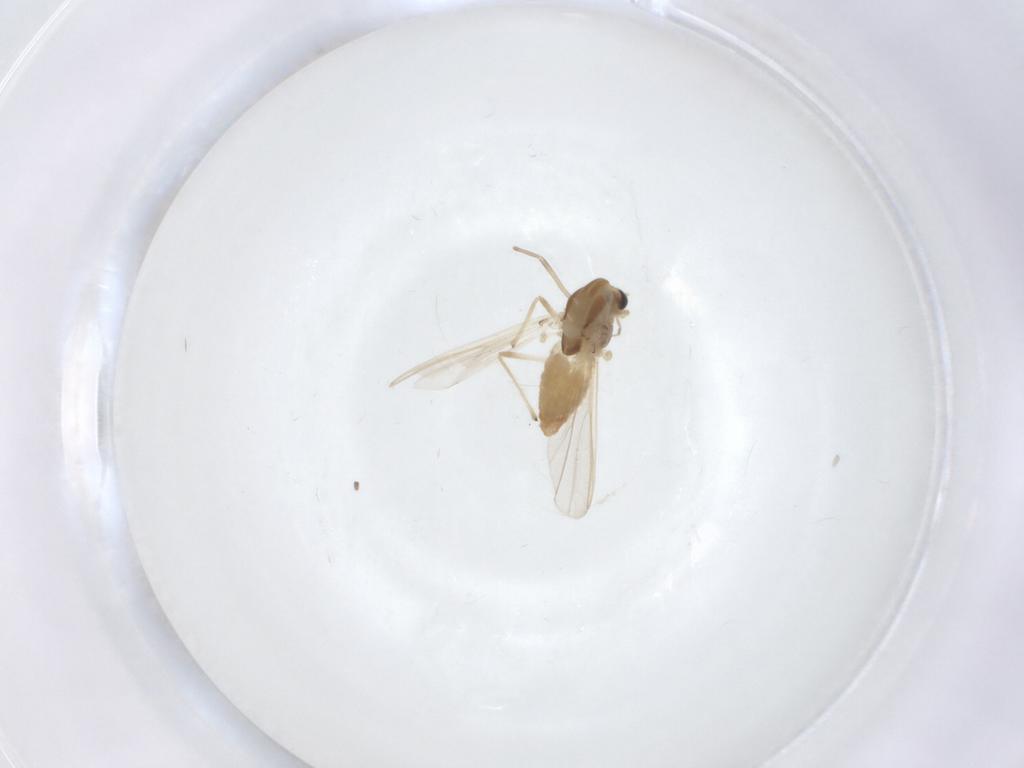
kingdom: Animalia
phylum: Arthropoda
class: Insecta
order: Diptera
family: Chironomidae
